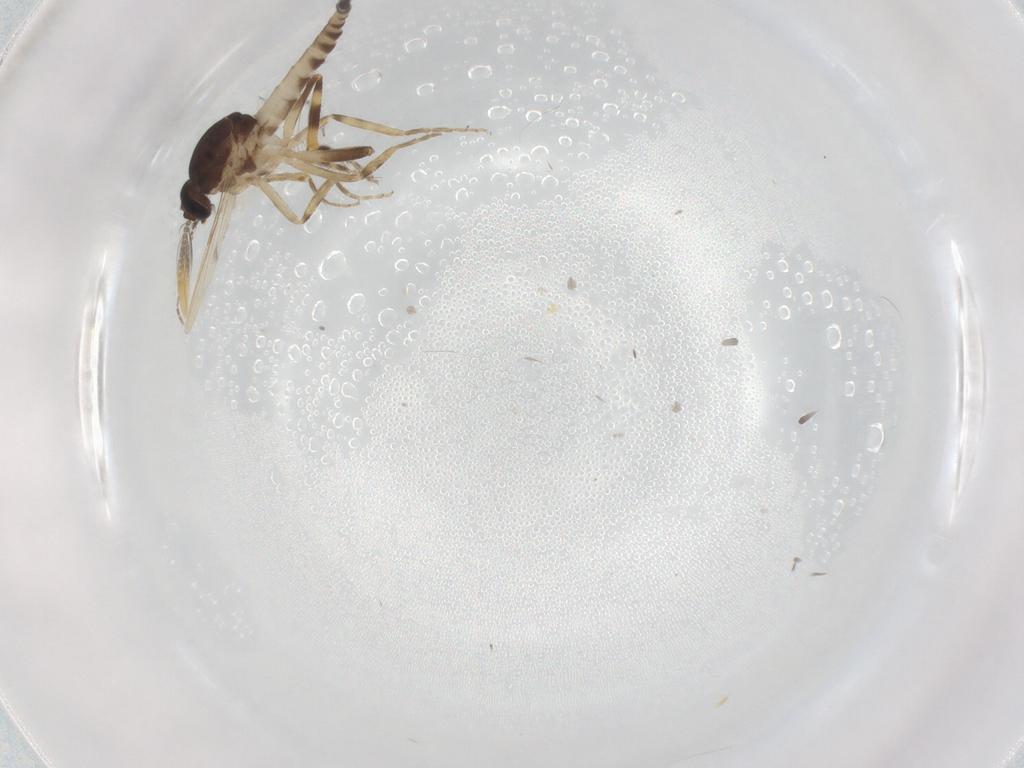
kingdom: Animalia
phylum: Arthropoda
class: Insecta
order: Diptera
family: Ceratopogonidae
